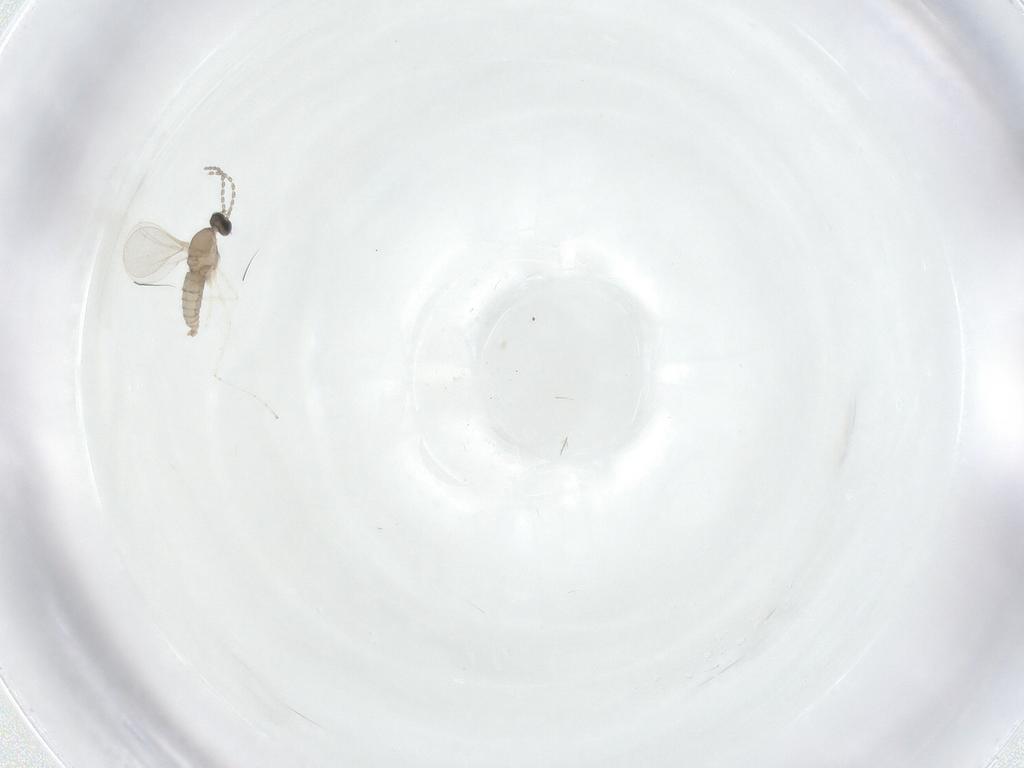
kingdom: Animalia
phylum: Arthropoda
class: Insecta
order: Diptera
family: Cecidomyiidae
